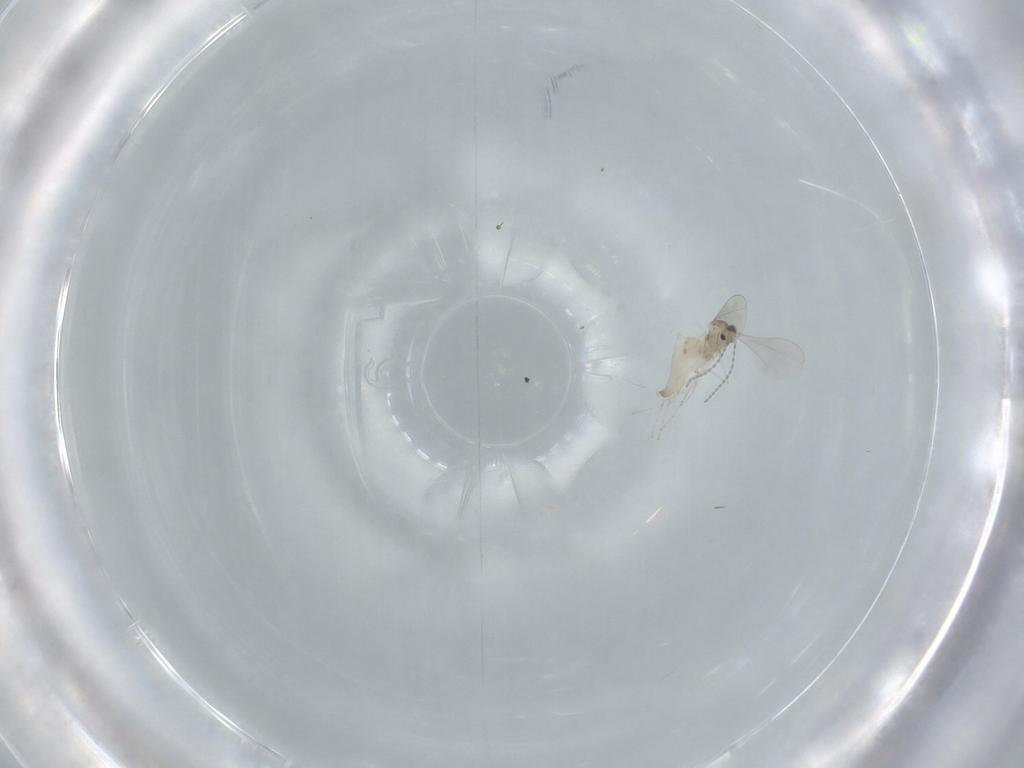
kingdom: Animalia
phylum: Arthropoda
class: Insecta
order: Diptera
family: Cecidomyiidae
